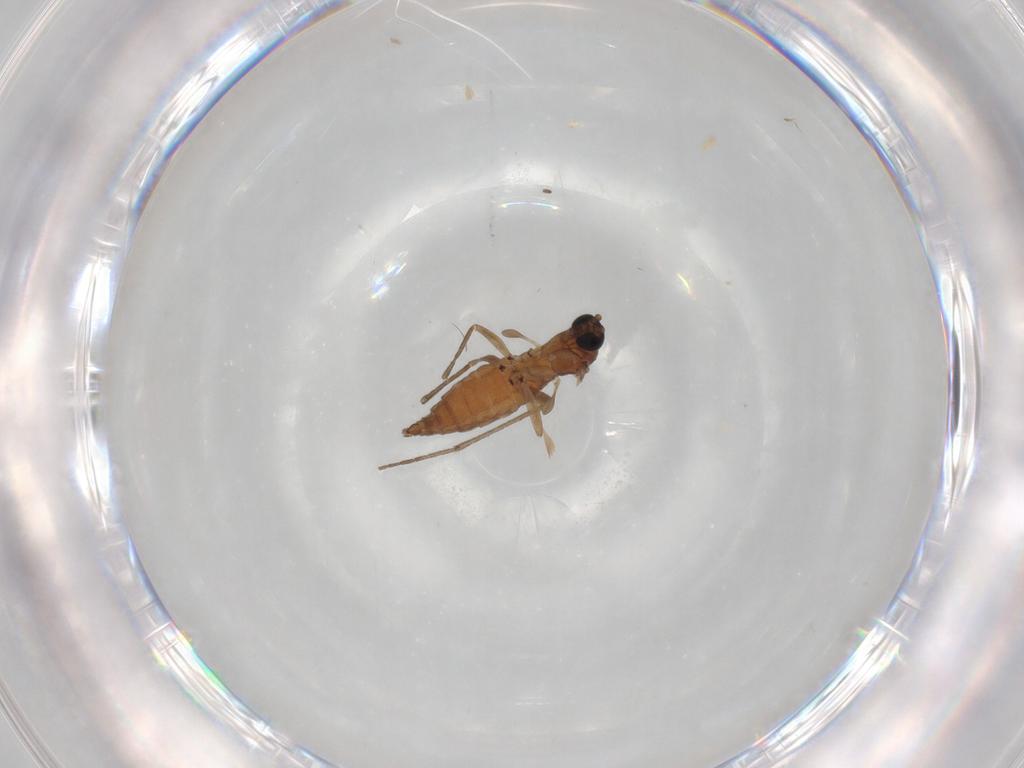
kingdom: Animalia
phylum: Arthropoda
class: Insecta
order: Diptera
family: Sciaridae
